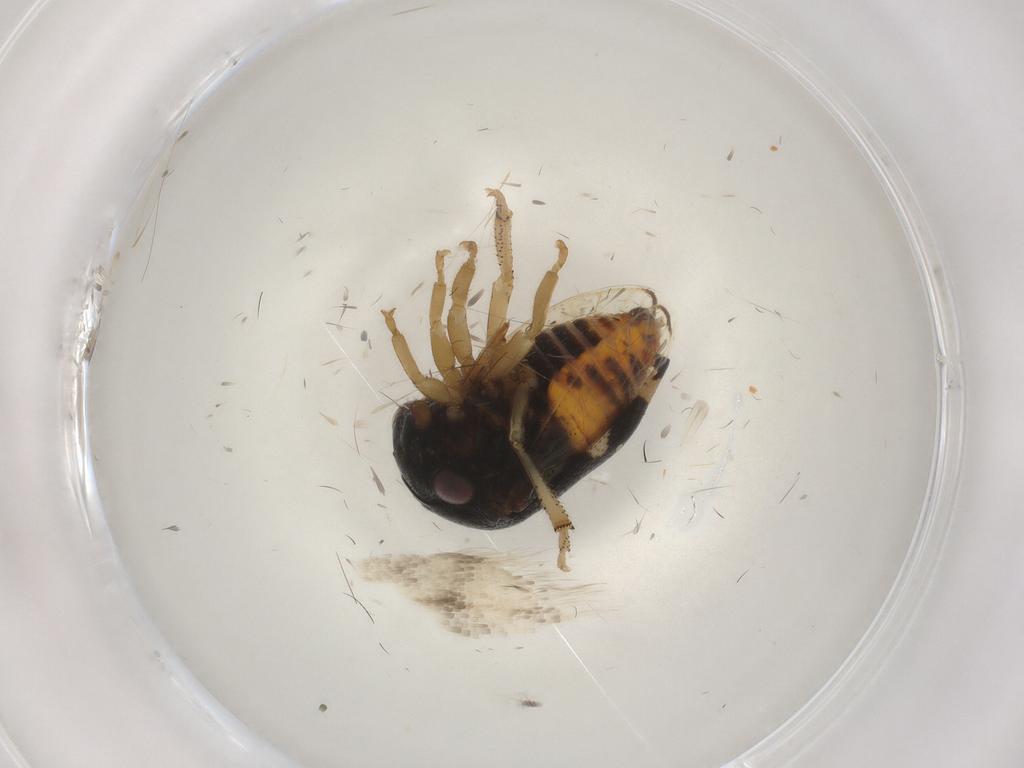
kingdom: Animalia
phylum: Arthropoda
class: Insecta
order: Hemiptera
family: Membracidae
